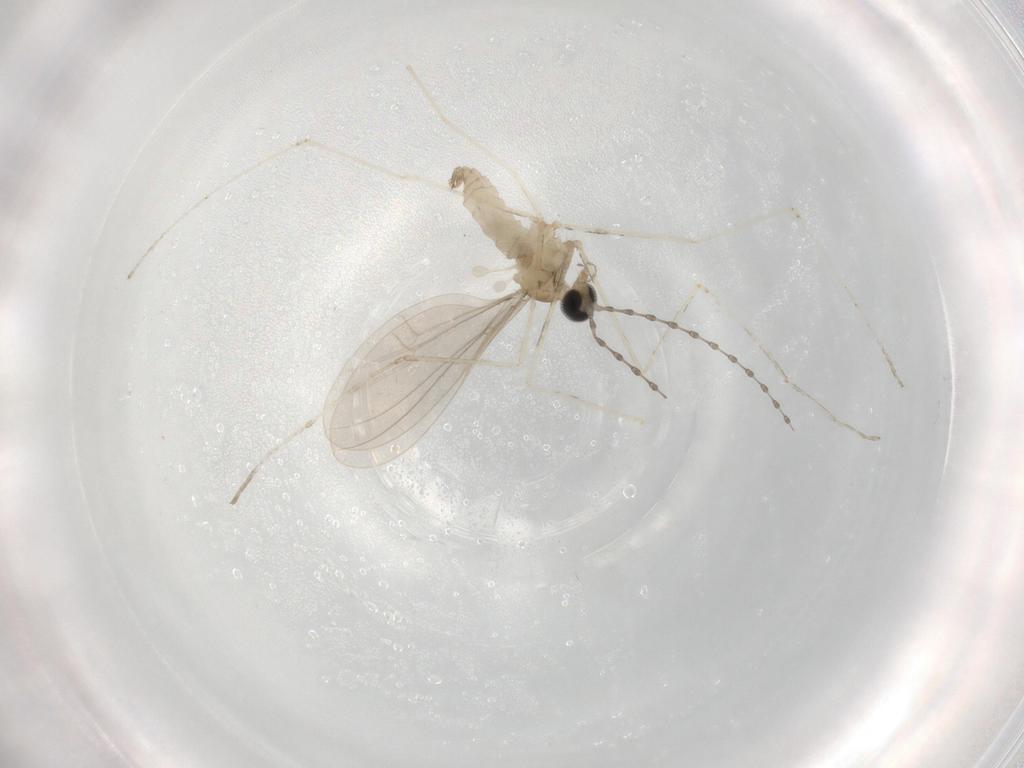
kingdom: Animalia
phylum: Arthropoda
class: Insecta
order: Diptera
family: Cecidomyiidae
